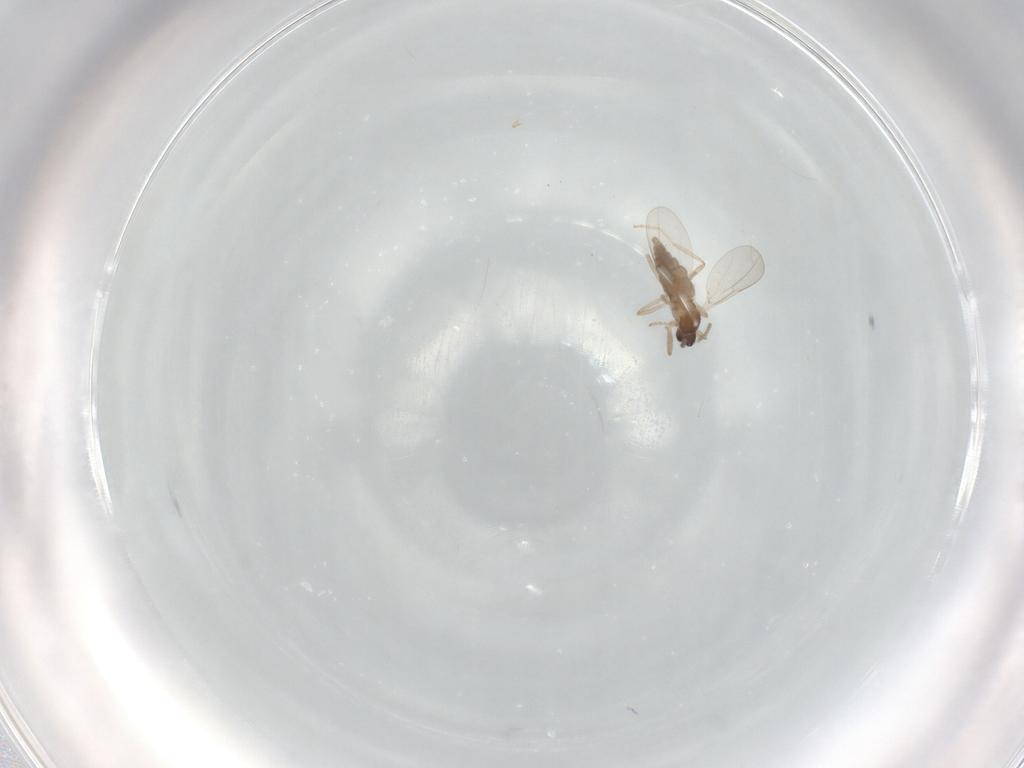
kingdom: Animalia
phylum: Arthropoda
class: Insecta
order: Diptera
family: Cecidomyiidae
